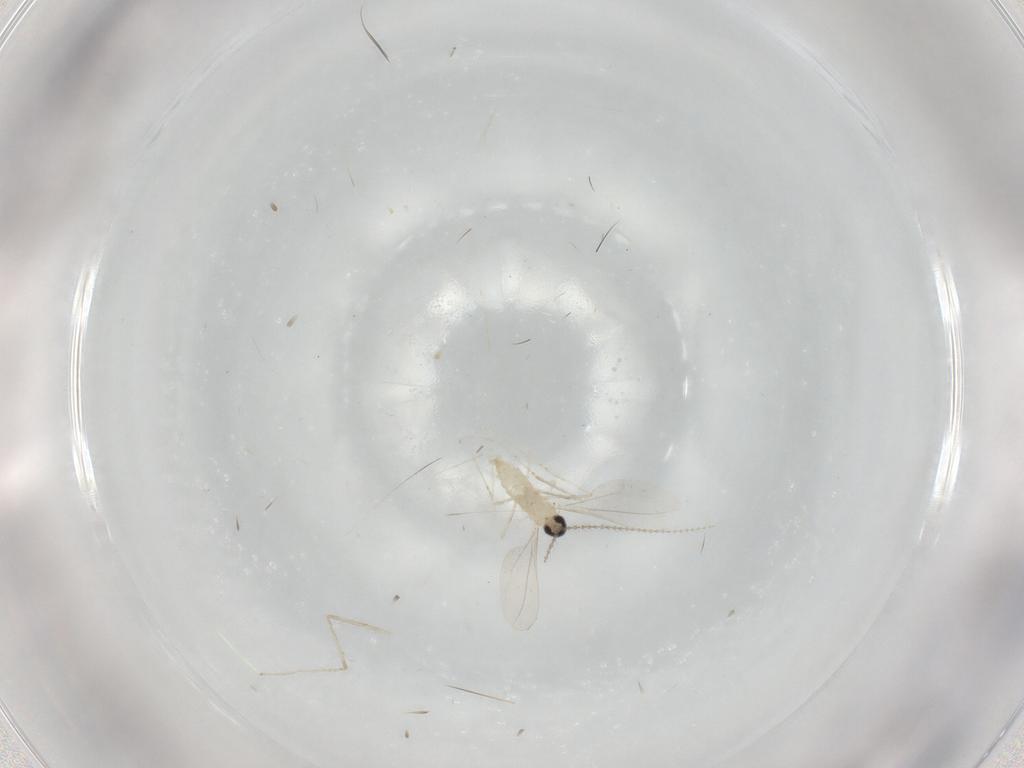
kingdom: Animalia
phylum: Arthropoda
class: Insecta
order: Diptera
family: Cecidomyiidae
